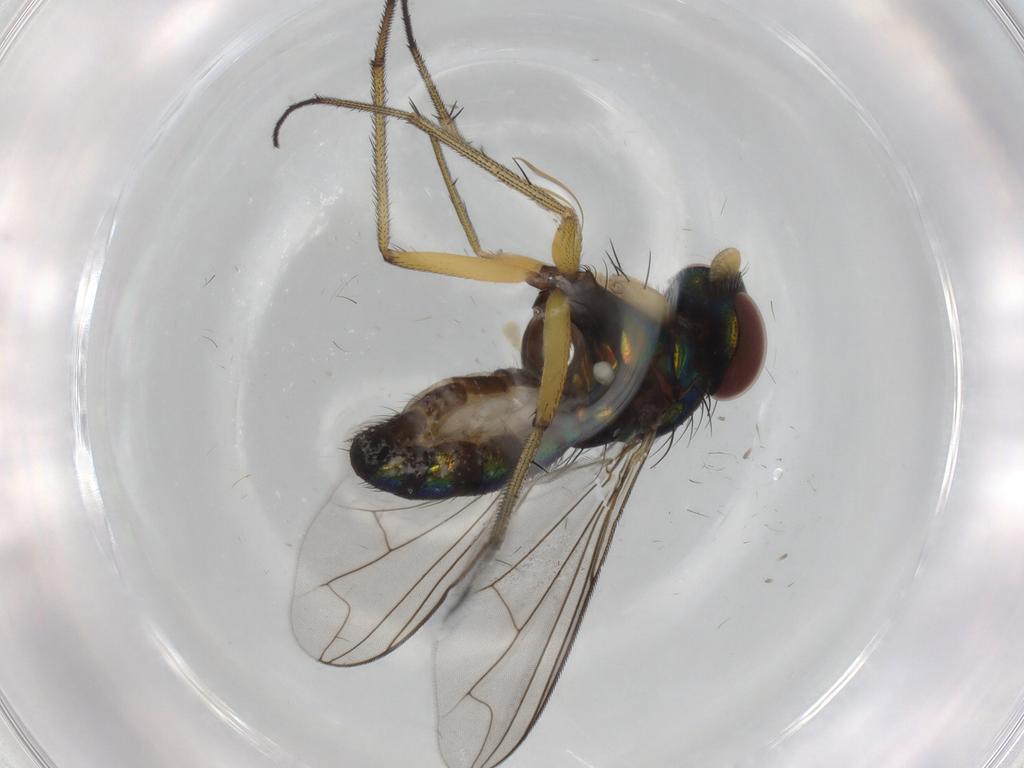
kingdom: Animalia
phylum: Arthropoda
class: Insecta
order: Diptera
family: Dolichopodidae
